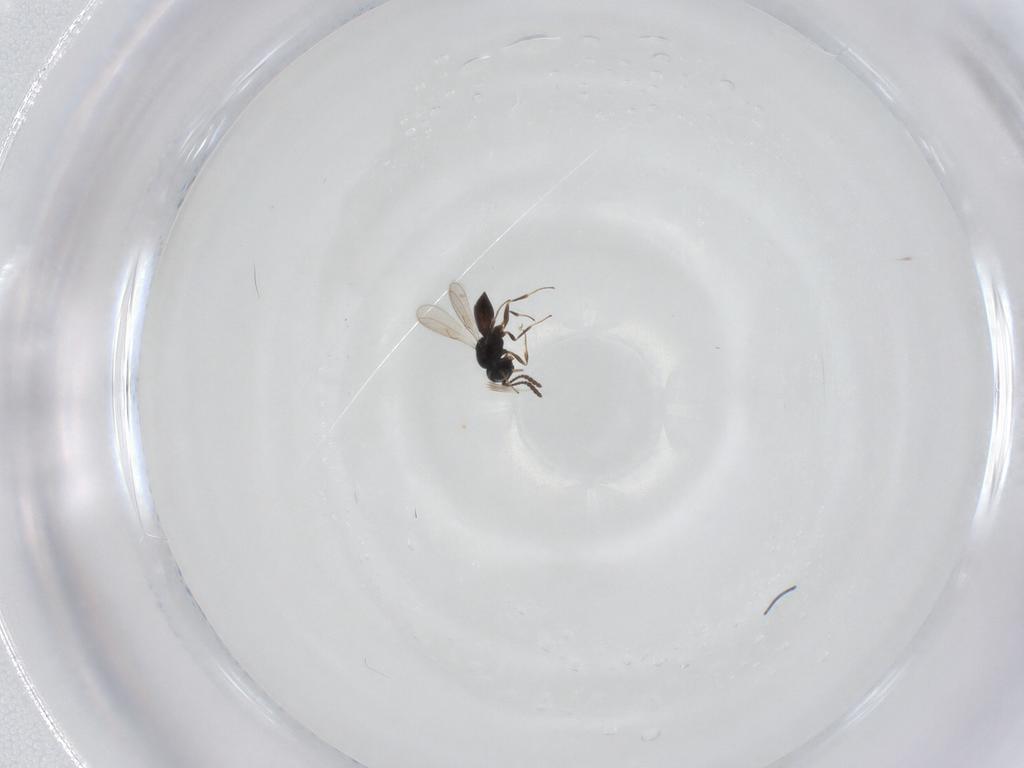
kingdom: Animalia
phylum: Arthropoda
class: Insecta
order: Hymenoptera
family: Scelionidae
